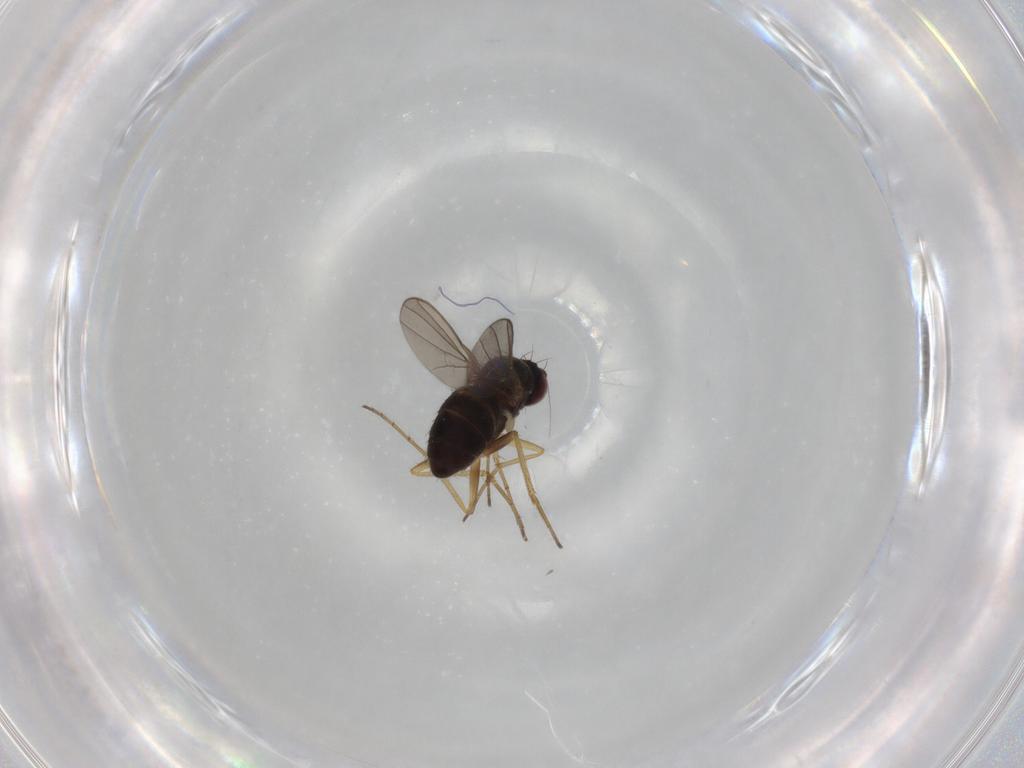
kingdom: Animalia
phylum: Arthropoda
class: Insecta
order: Diptera
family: Dolichopodidae
